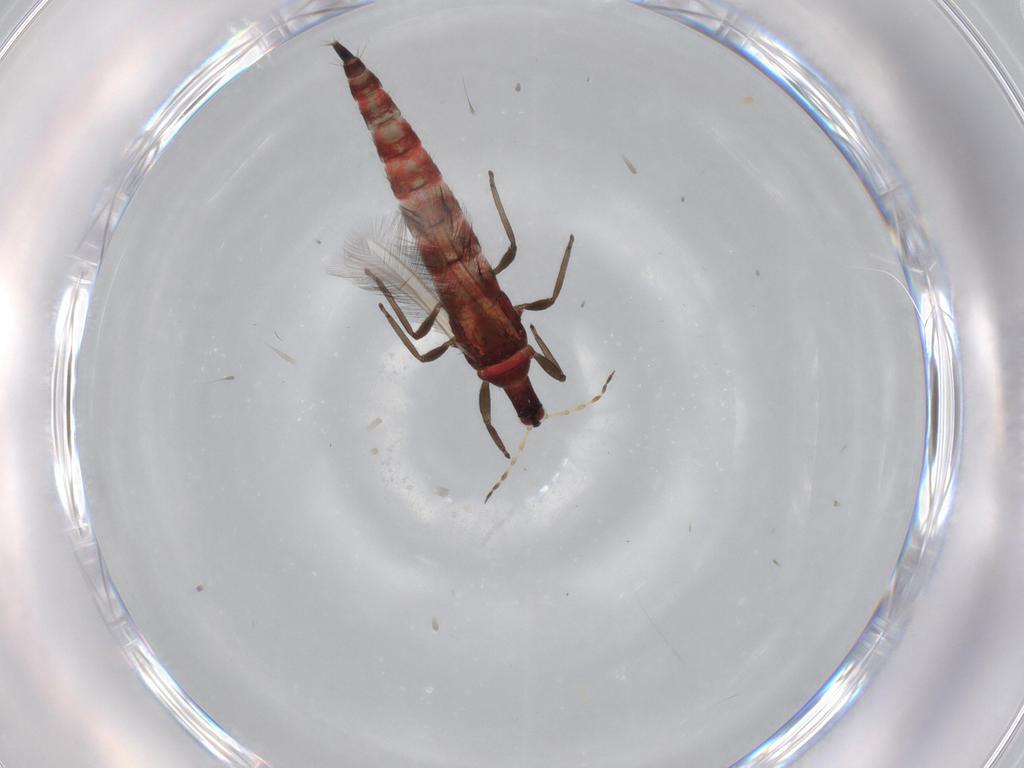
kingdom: Animalia
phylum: Arthropoda
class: Insecta
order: Thysanoptera
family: Phlaeothripidae
